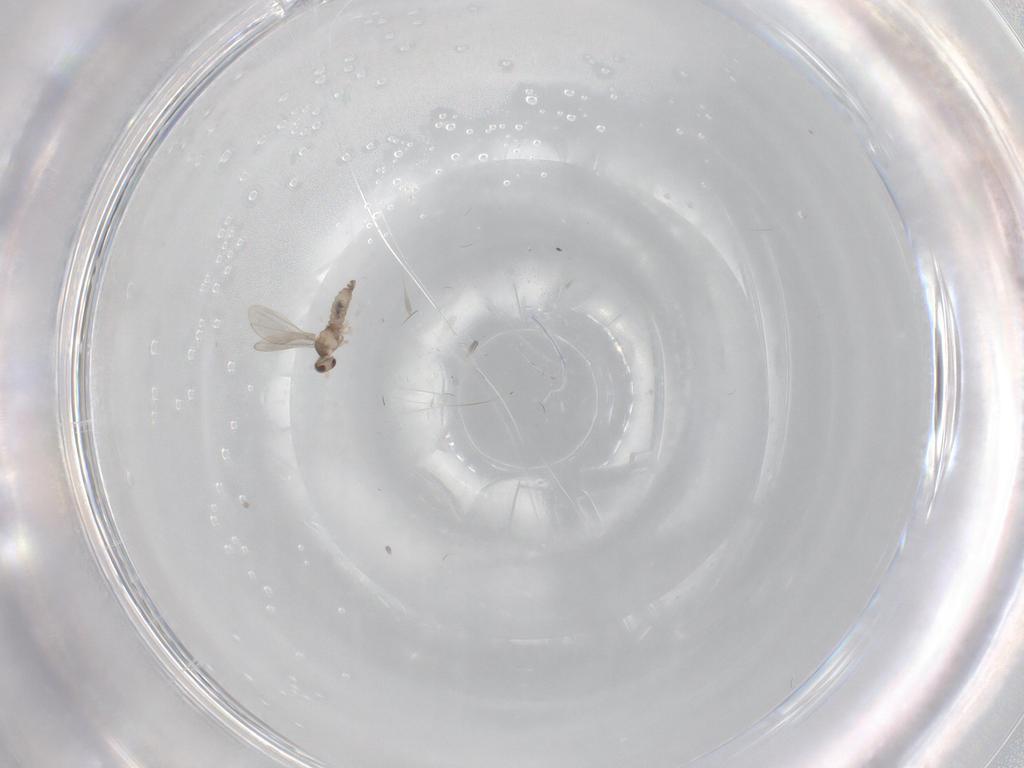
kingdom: Animalia
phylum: Arthropoda
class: Insecta
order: Diptera
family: Cecidomyiidae
